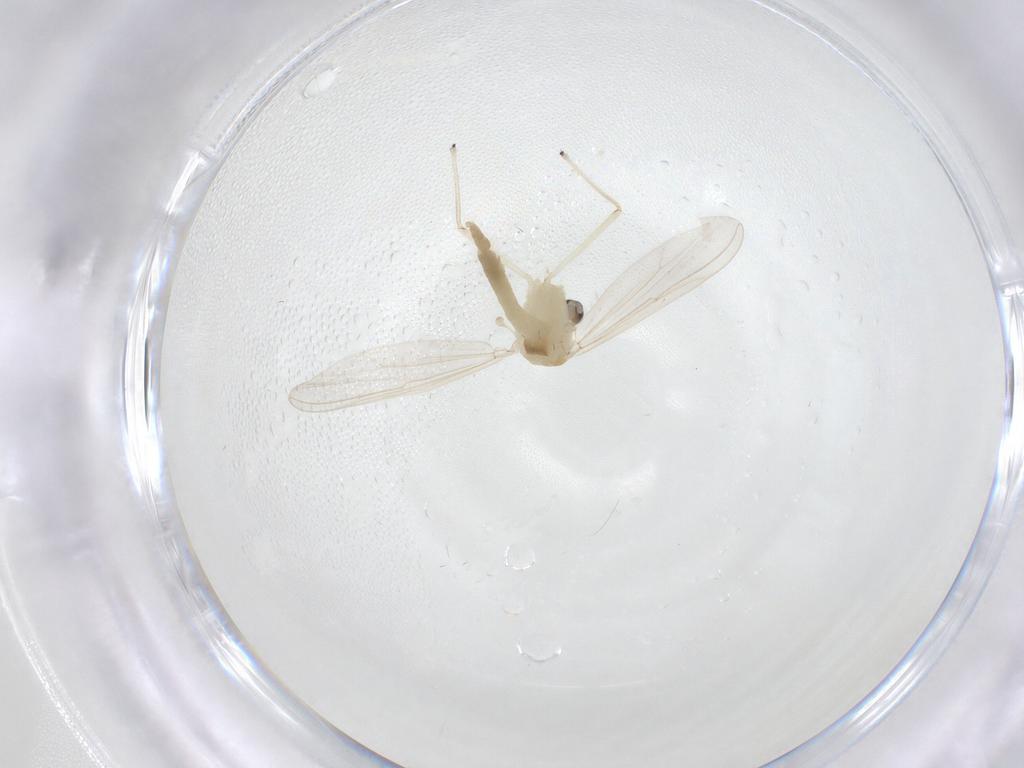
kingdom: Animalia
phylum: Arthropoda
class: Insecta
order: Diptera
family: Chironomidae
